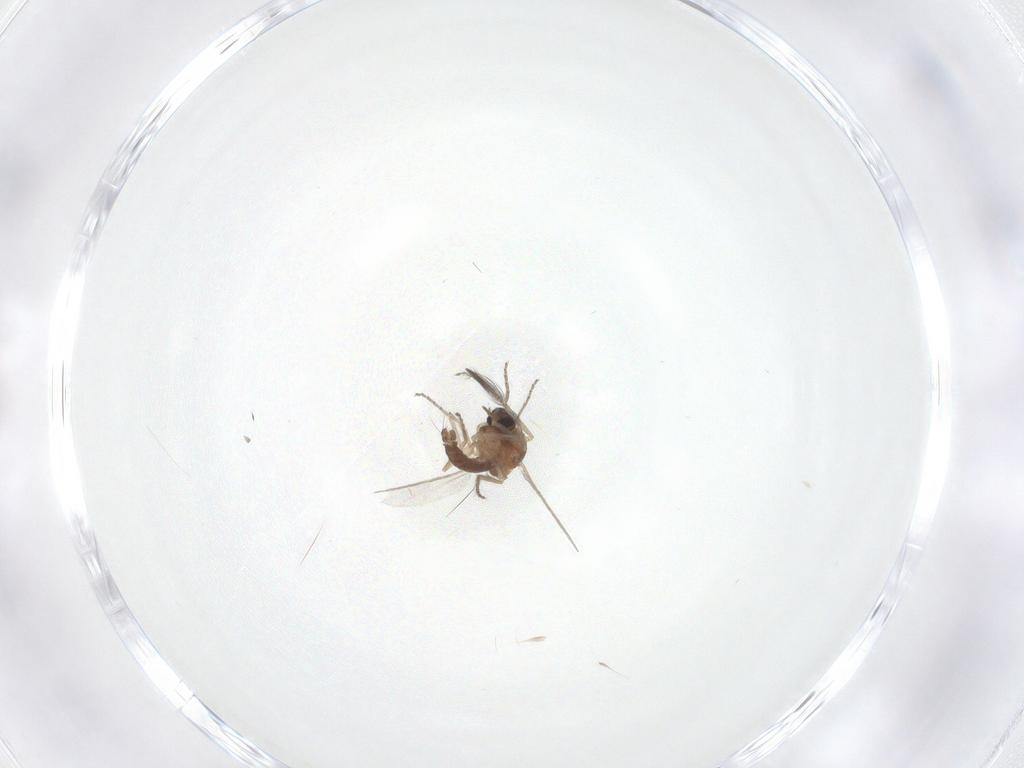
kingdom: Animalia
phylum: Arthropoda
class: Insecta
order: Diptera
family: Ceratopogonidae
